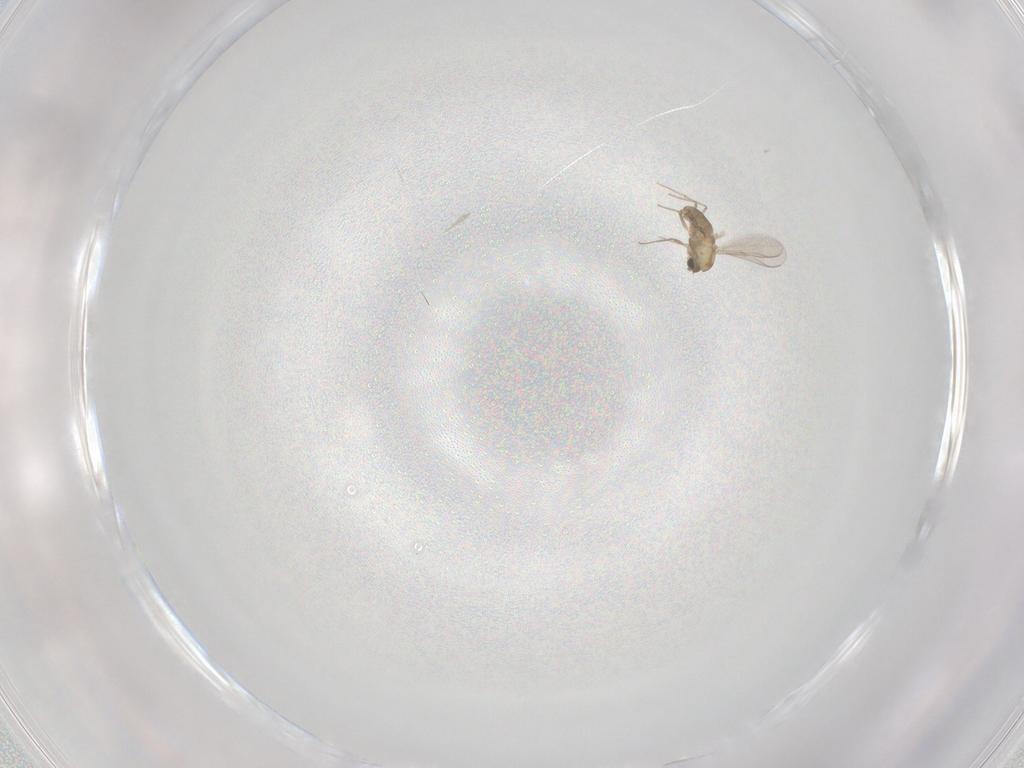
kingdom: Animalia
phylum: Arthropoda
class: Insecta
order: Diptera
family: Chironomidae
